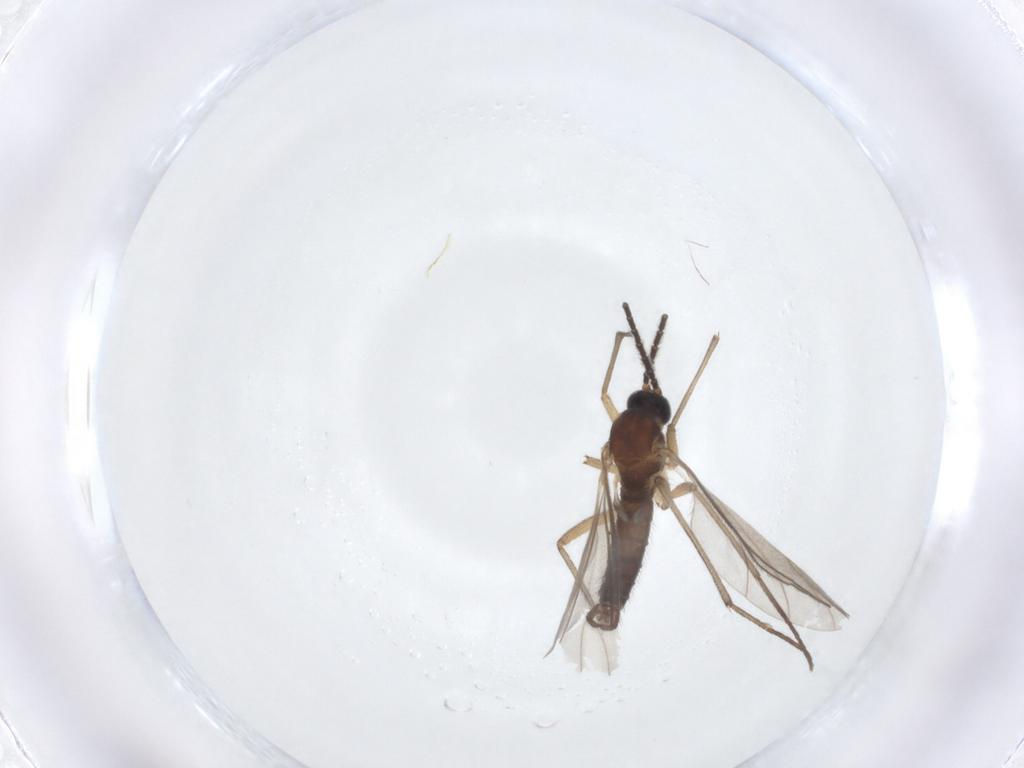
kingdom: Animalia
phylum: Arthropoda
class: Insecta
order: Diptera
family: Sciaridae
